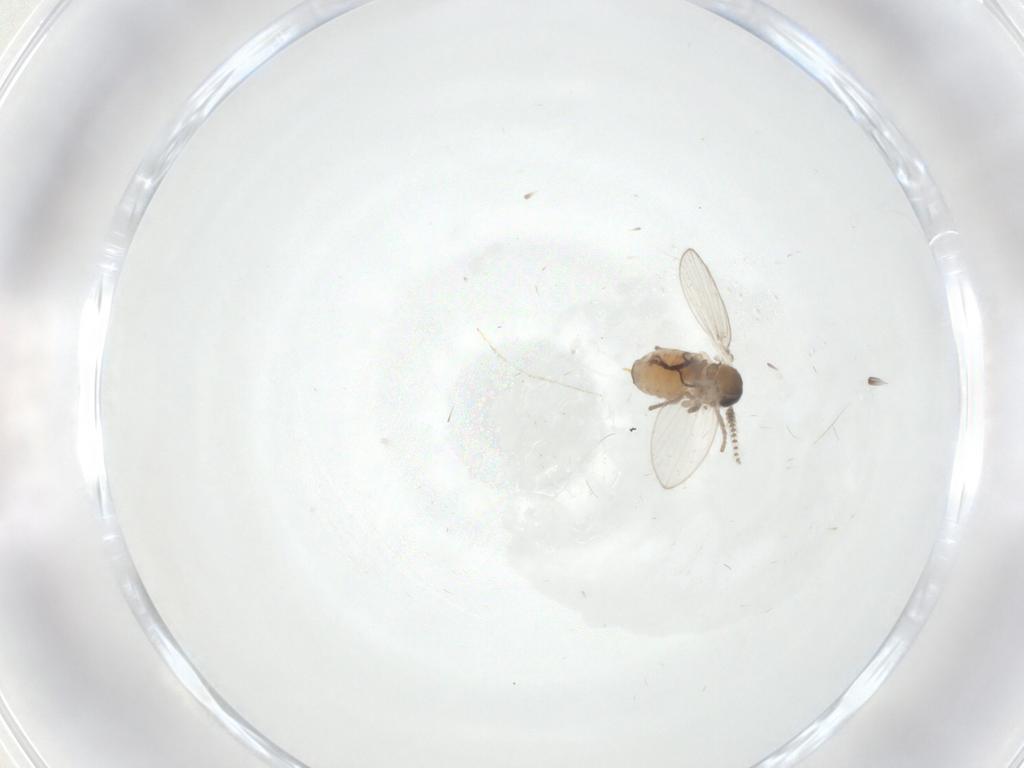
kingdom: Animalia
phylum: Arthropoda
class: Insecta
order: Diptera
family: Psychodidae
